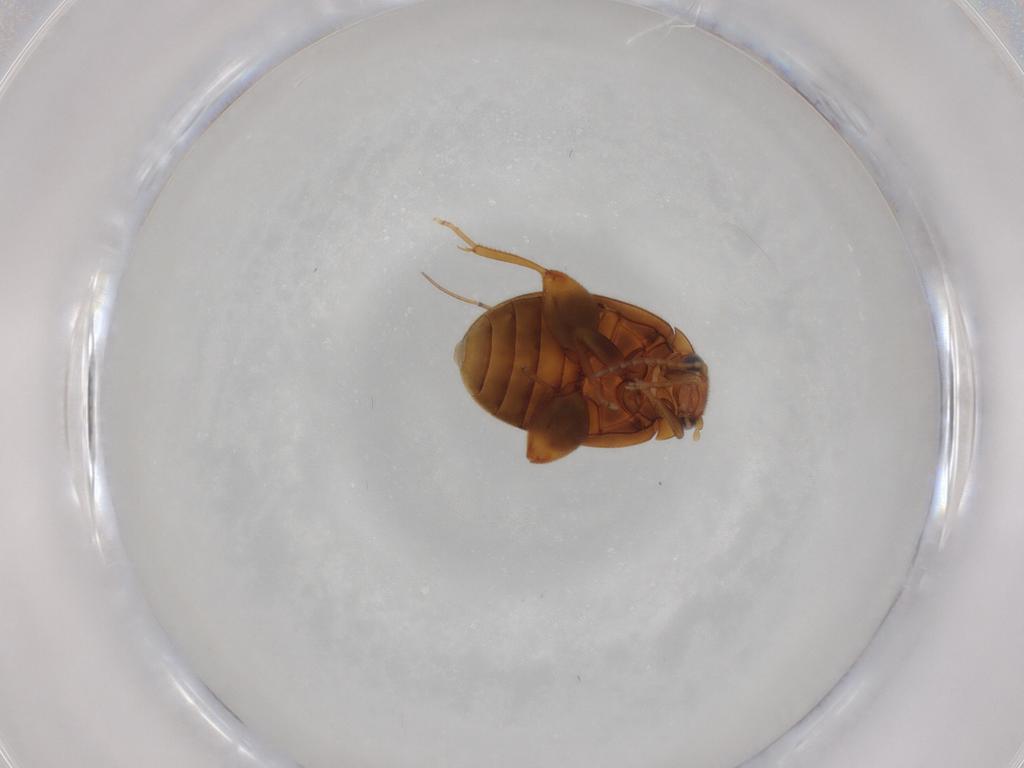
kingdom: Animalia
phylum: Arthropoda
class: Insecta
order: Coleoptera
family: Scirtidae
